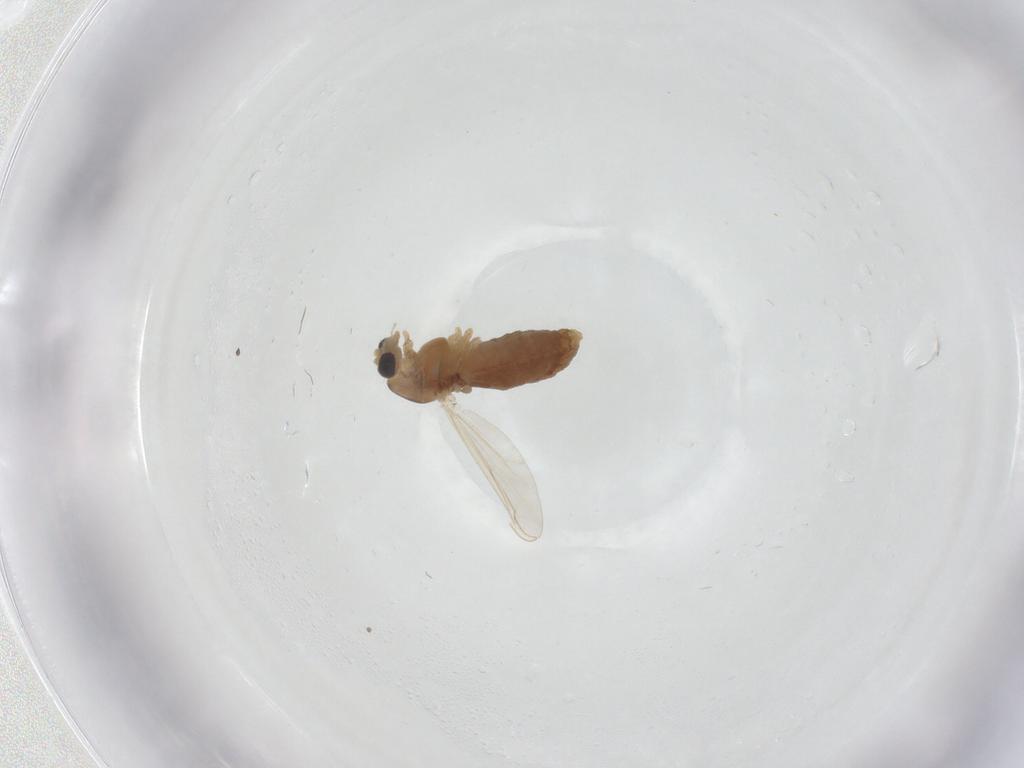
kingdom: Animalia
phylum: Arthropoda
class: Insecta
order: Diptera
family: Chironomidae
